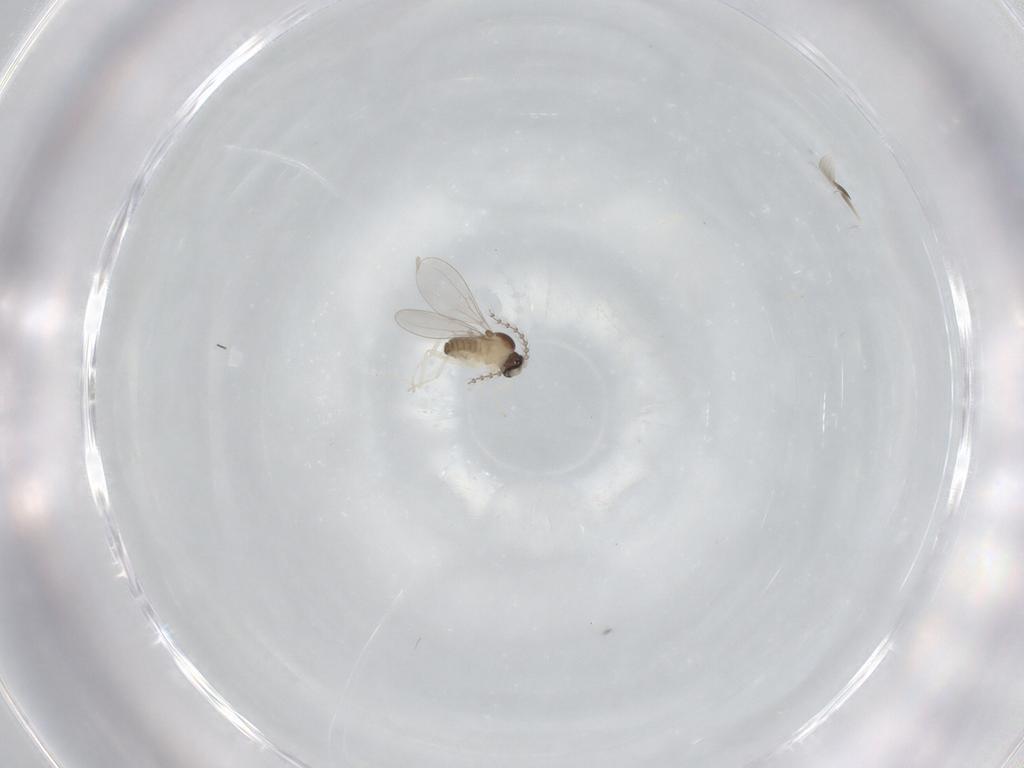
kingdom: Animalia
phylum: Arthropoda
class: Insecta
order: Diptera
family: Cecidomyiidae
